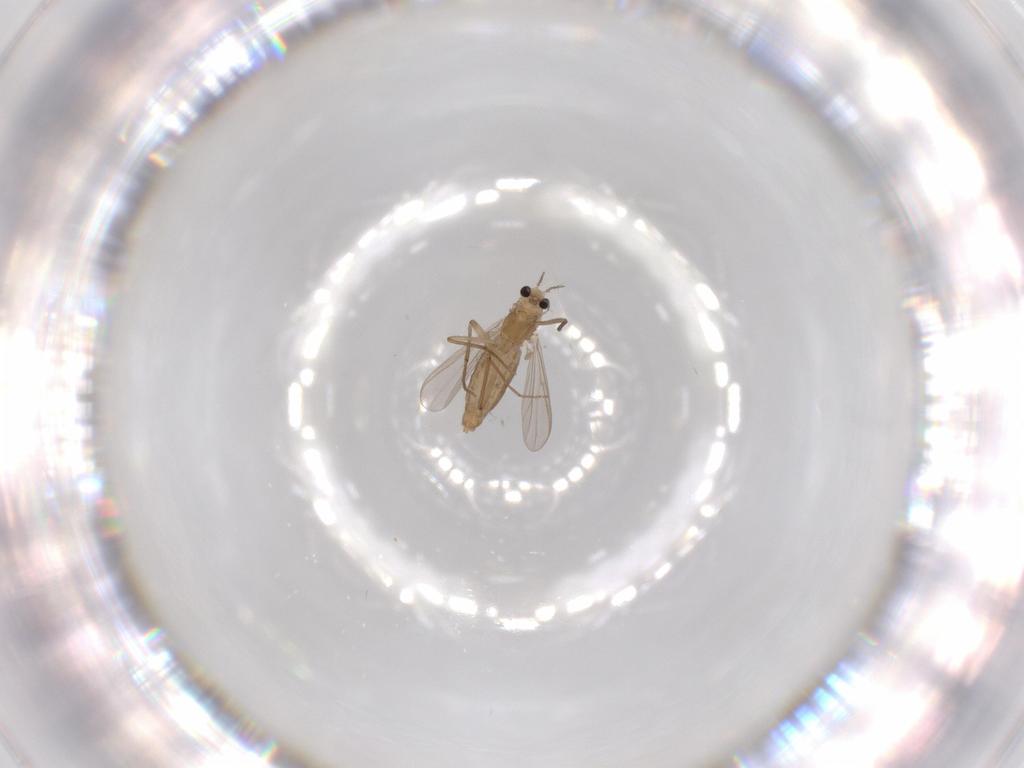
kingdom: Animalia
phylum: Arthropoda
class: Insecta
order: Diptera
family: Chironomidae
